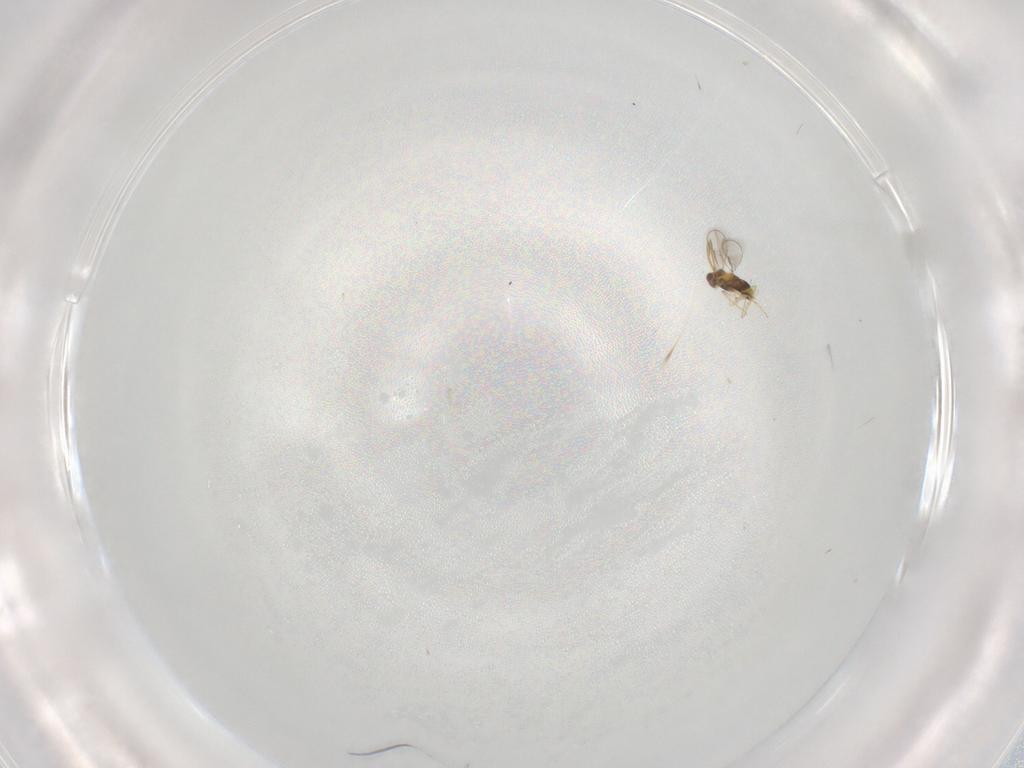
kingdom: Animalia
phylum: Arthropoda
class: Insecta
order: Hymenoptera
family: Aphelinidae
